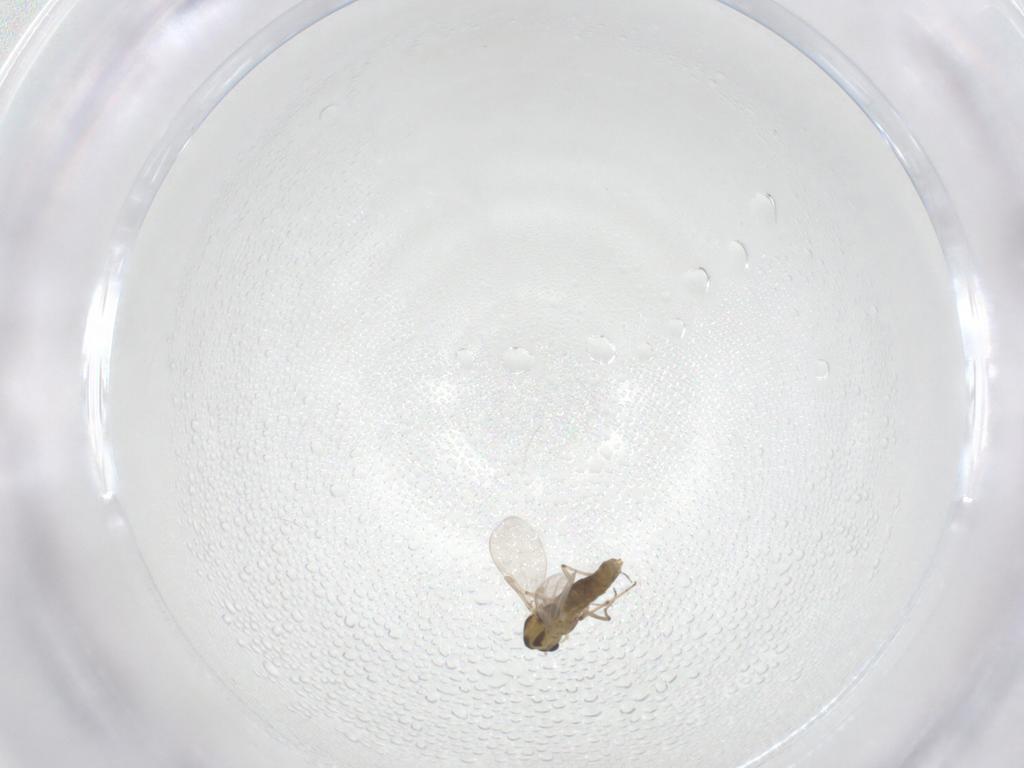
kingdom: Animalia
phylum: Arthropoda
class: Insecta
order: Diptera
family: Chironomidae
